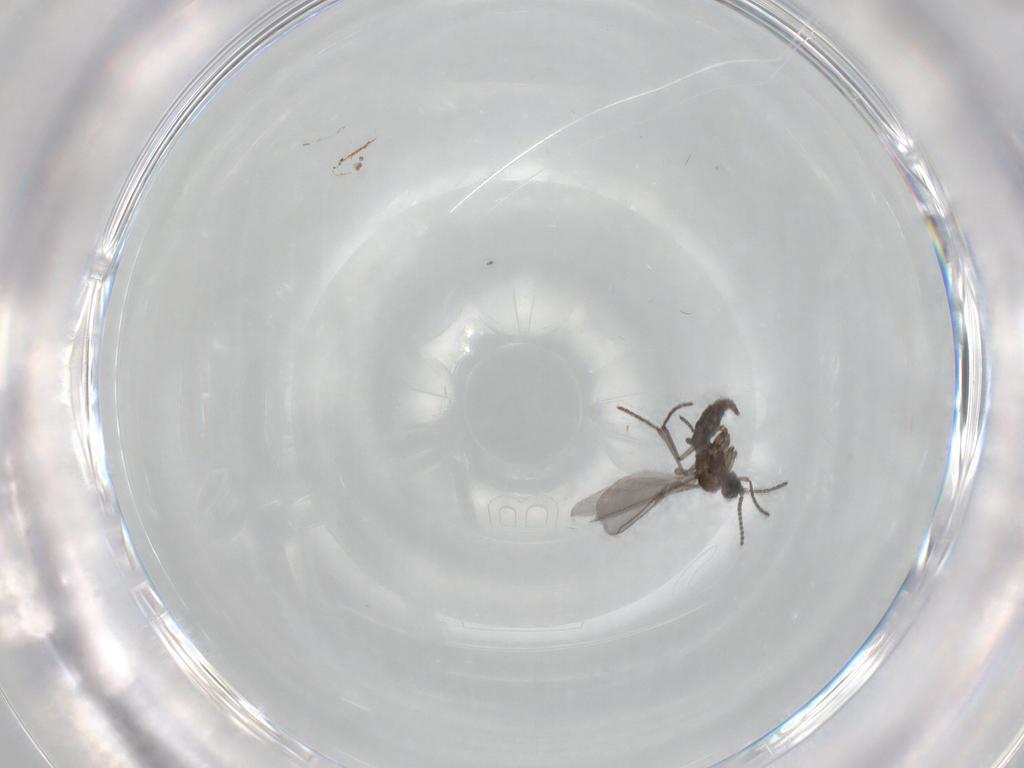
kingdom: Animalia
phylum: Arthropoda
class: Insecta
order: Diptera
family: Sciaridae
